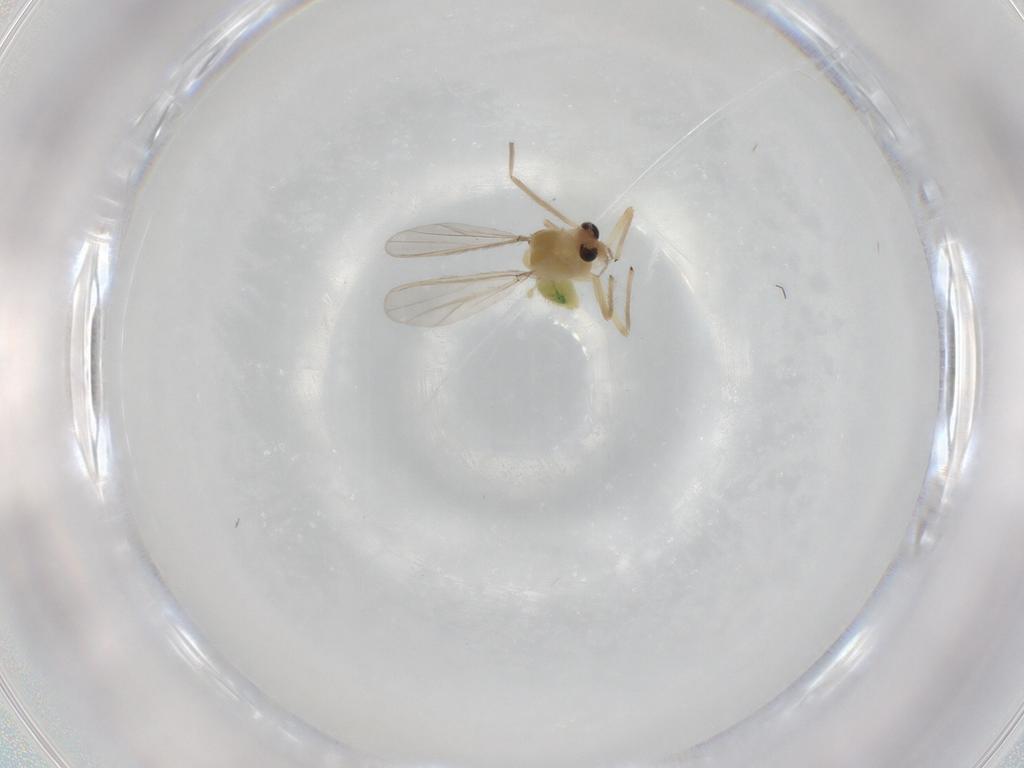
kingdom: Animalia
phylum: Arthropoda
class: Insecta
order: Diptera
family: Chironomidae
